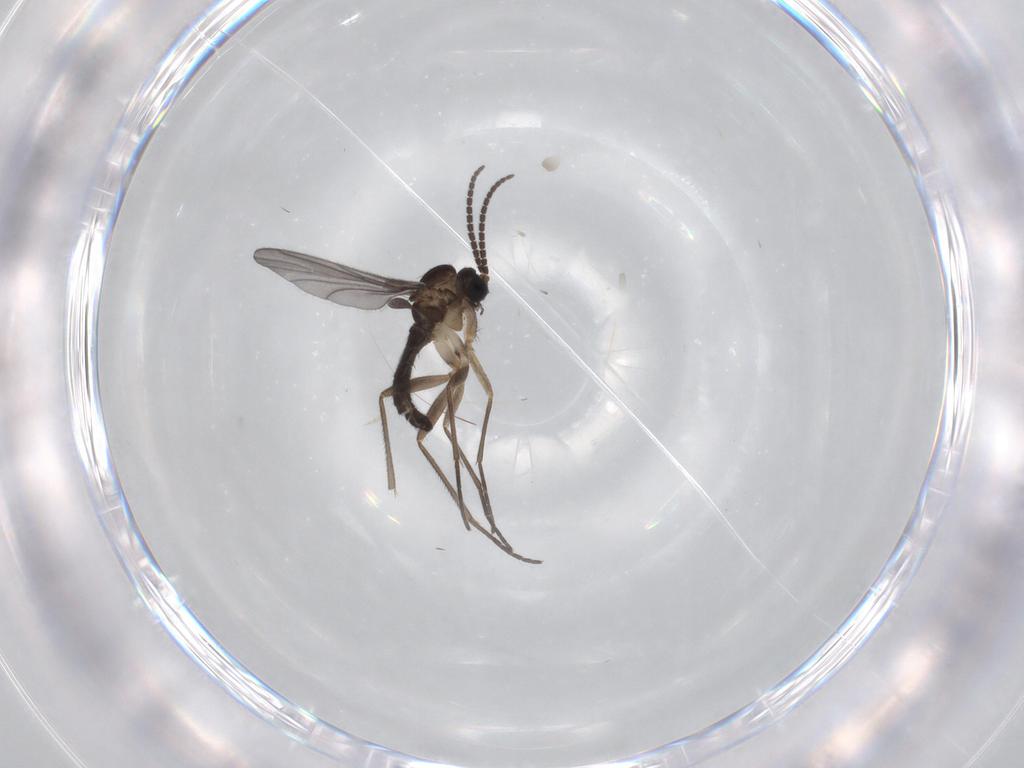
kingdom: Animalia
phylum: Arthropoda
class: Insecta
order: Diptera
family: Sciaridae
